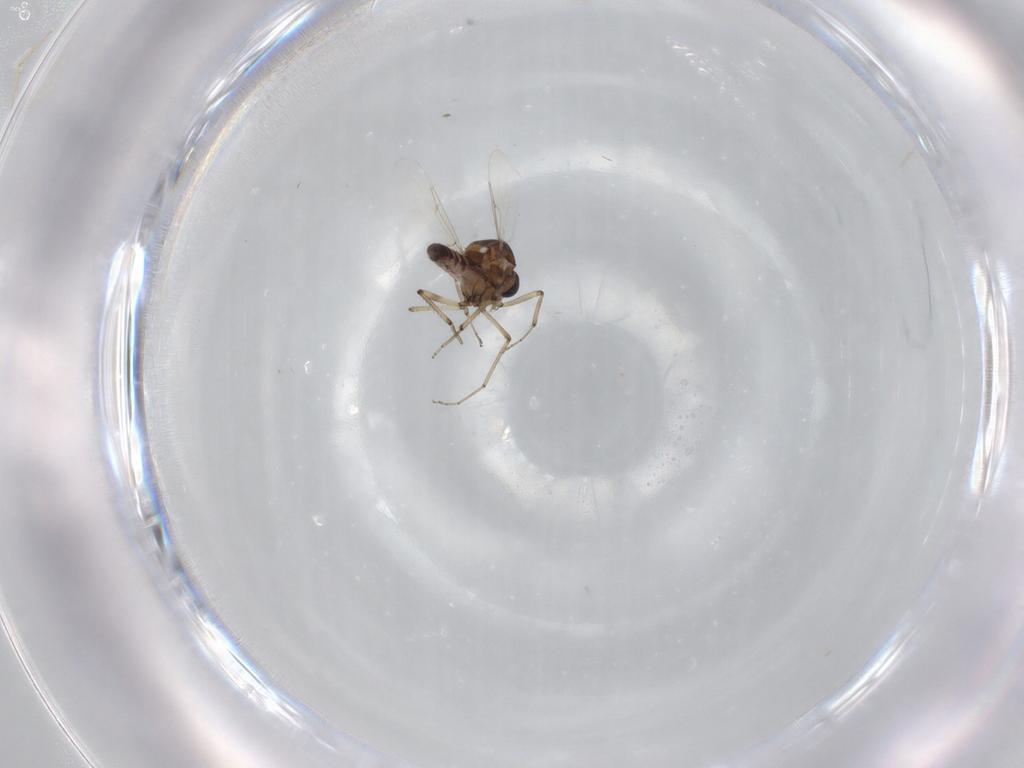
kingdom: Animalia
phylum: Arthropoda
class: Insecta
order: Diptera
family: Ceratopogonidae
